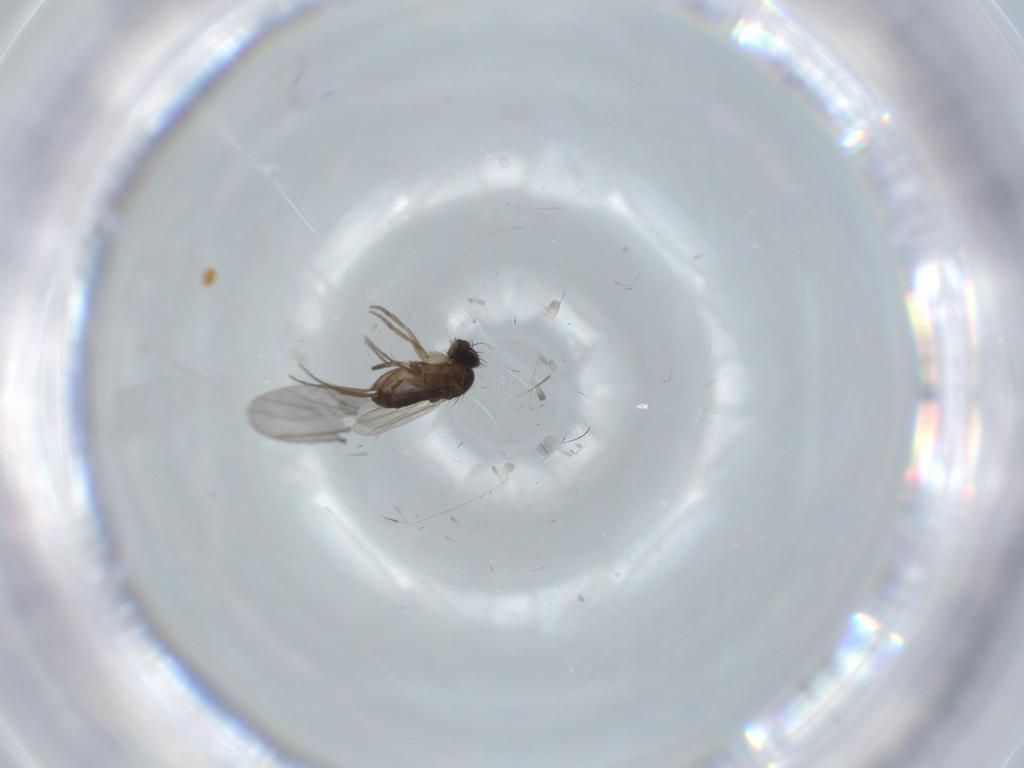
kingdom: Animalia
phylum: Arthropoda
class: Insecta
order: Diptera
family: Phoridae
